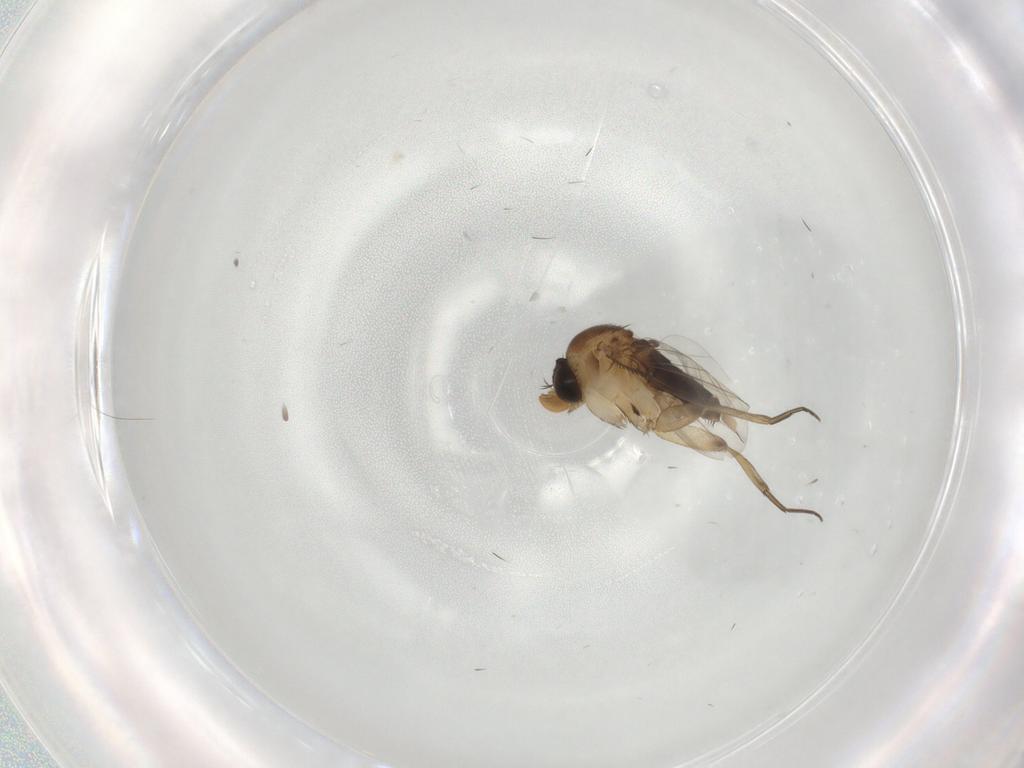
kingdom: Animalia
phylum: Arthropoda
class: Insecta
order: Diptera
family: Phoridae
